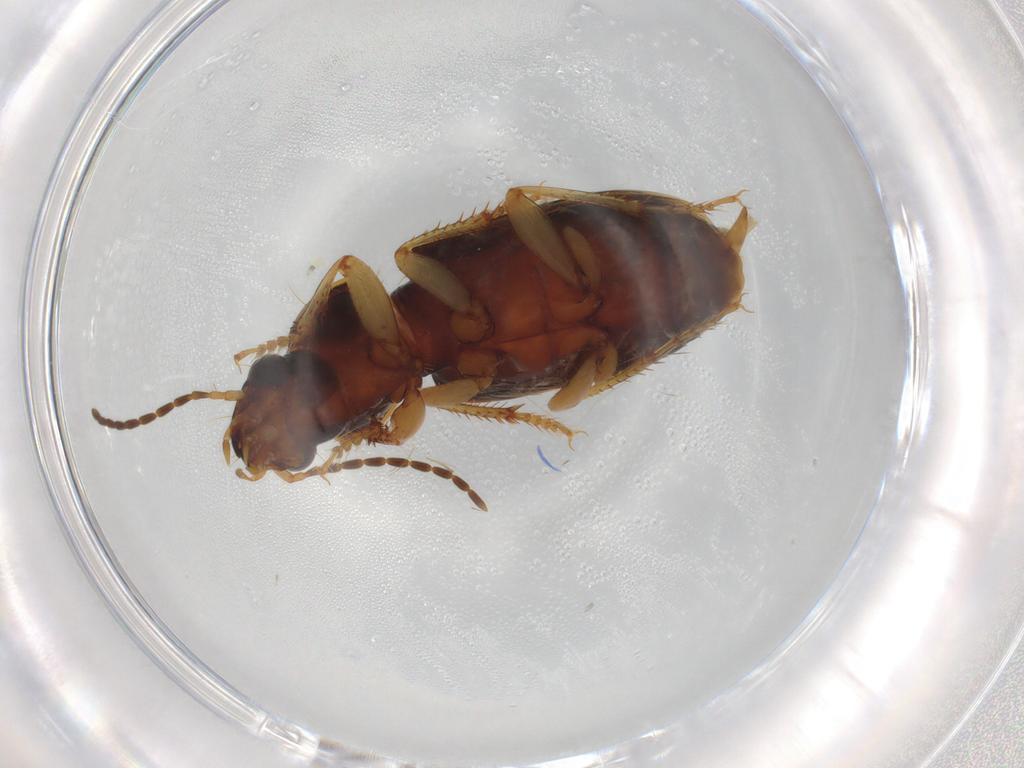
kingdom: Animalia
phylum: Arthropoda
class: Insecta
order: Coleoptera
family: Carabidae
